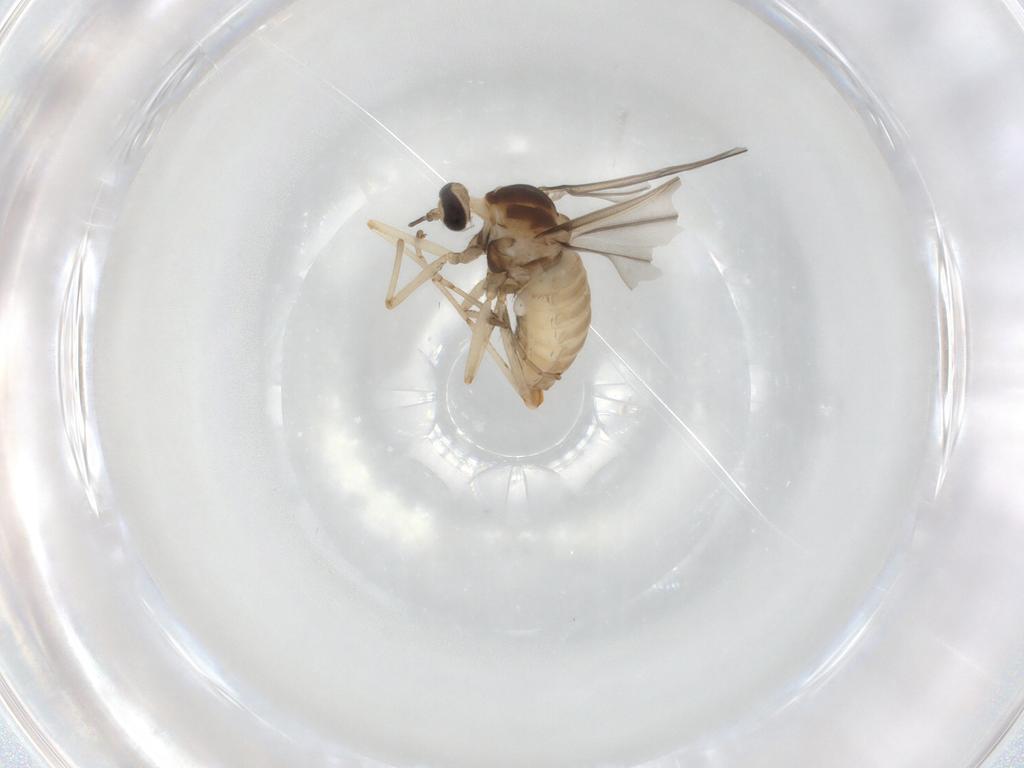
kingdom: Animalia
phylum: Arthropoda
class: Insecta
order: Diptera
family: Cecidomyiidae
